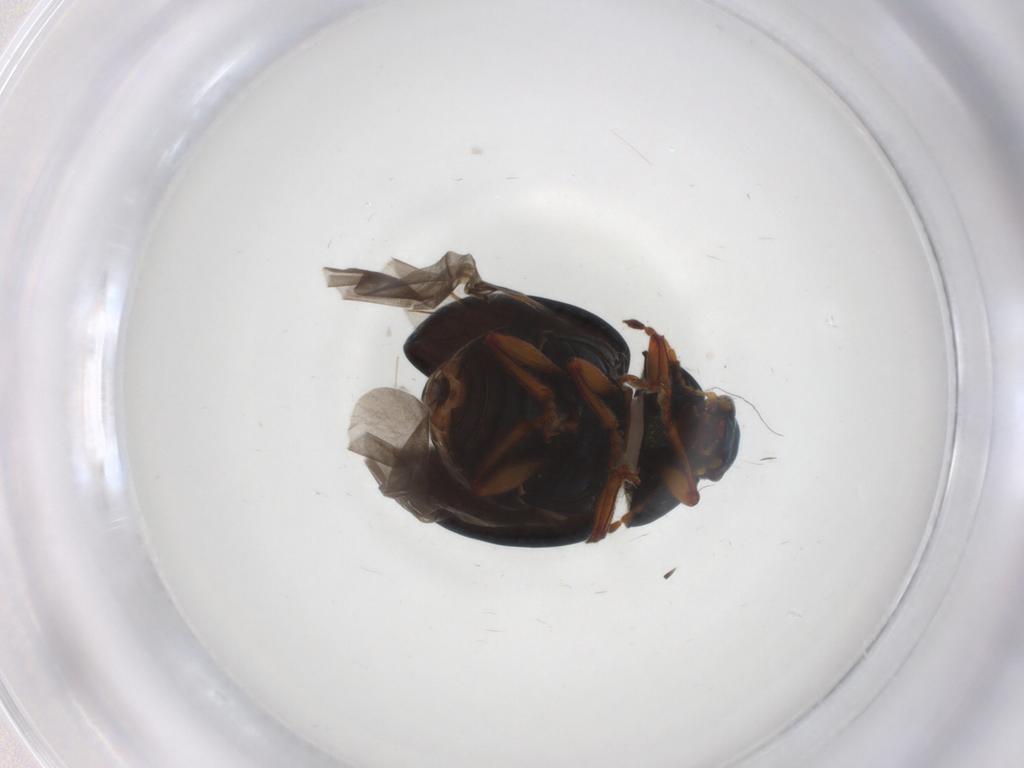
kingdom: Animalia
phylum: Arthropoda
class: Insecta
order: Coleoptera
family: Chrysomelidae
